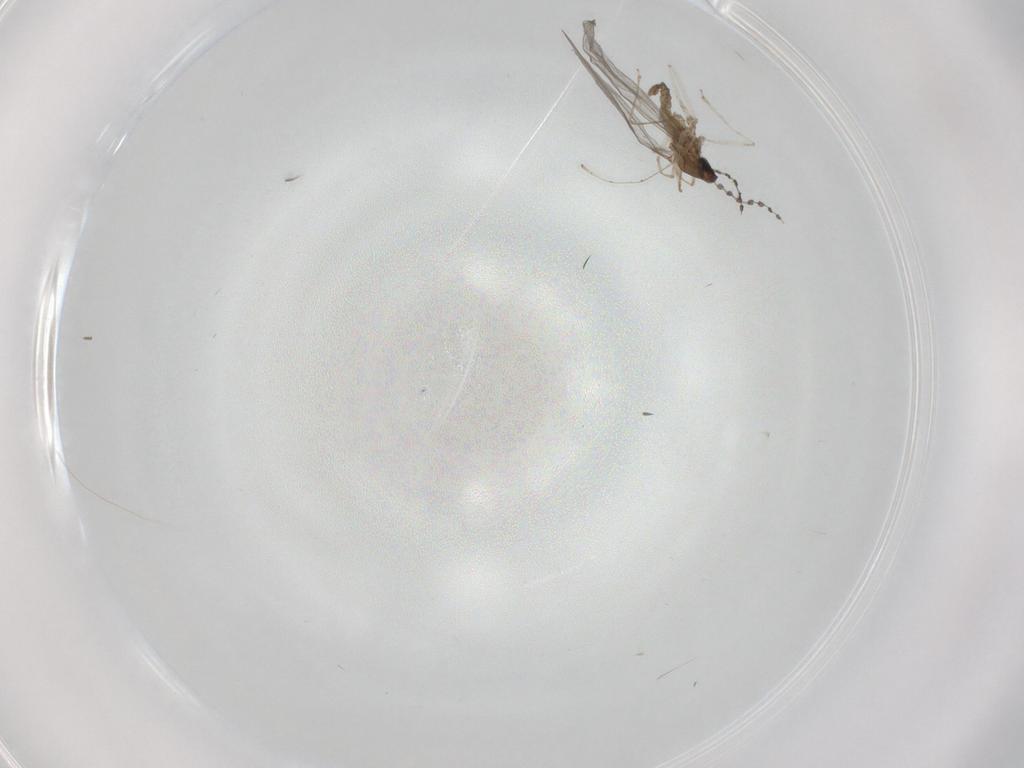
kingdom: Animalia
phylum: Arthropoda
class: Insecta
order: Diptera
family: Cecidomyiidae
